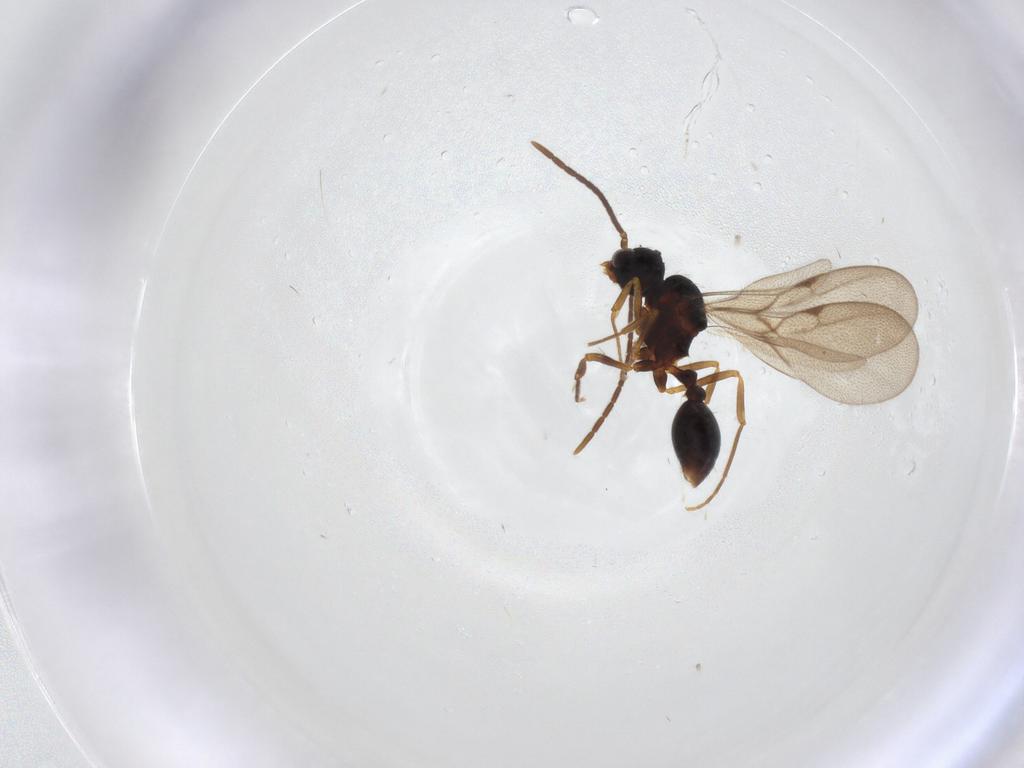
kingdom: Animalia
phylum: Arthropoda
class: Insecta
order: Hymenoptera
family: Formicidae
